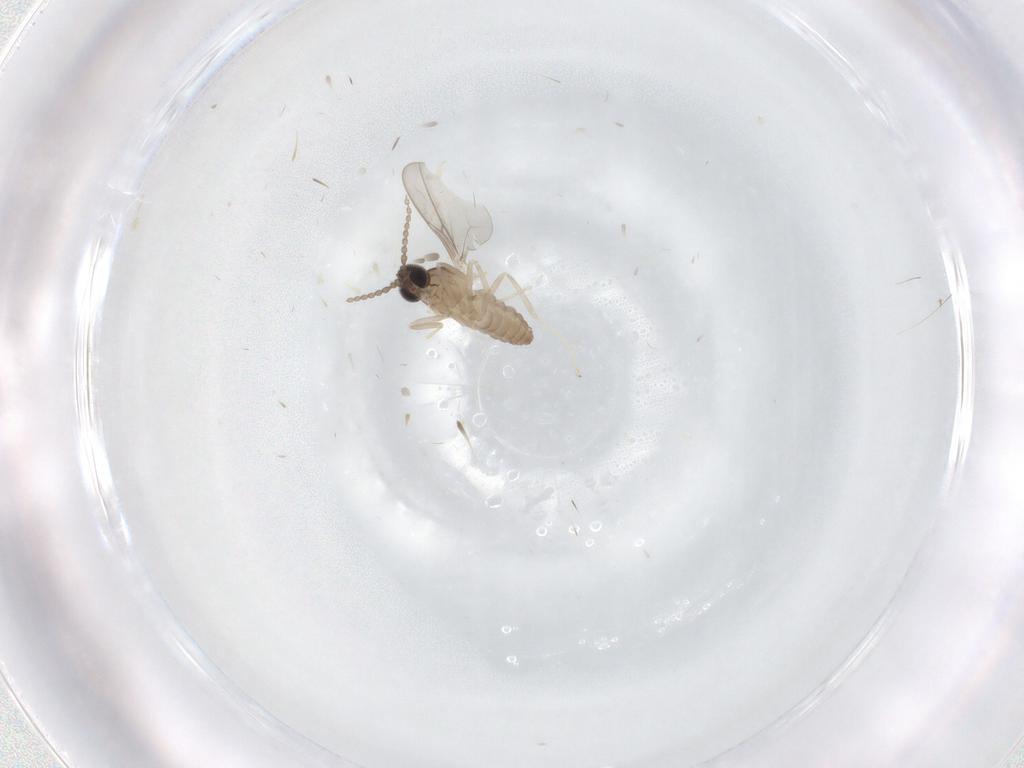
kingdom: Animalia
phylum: Arthropoda
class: Insecta
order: Diptera
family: Cecidomyiidae
